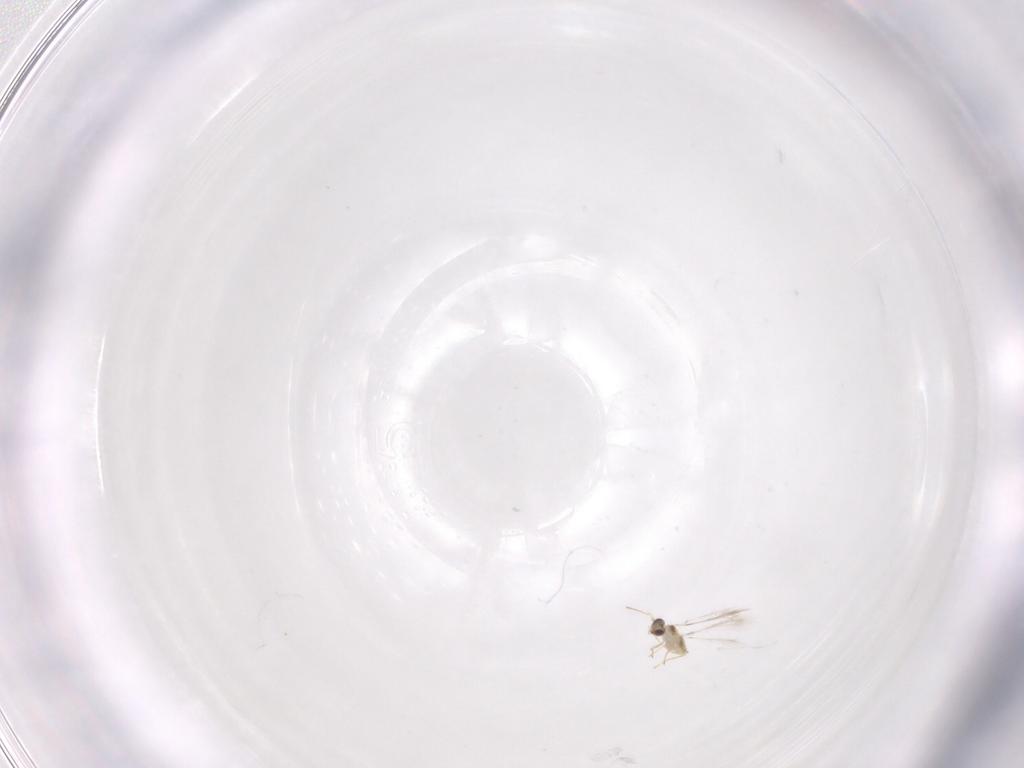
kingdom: Animalia
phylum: Arthropoda
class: Insecta
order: Hymenoptera
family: Mymaridae
